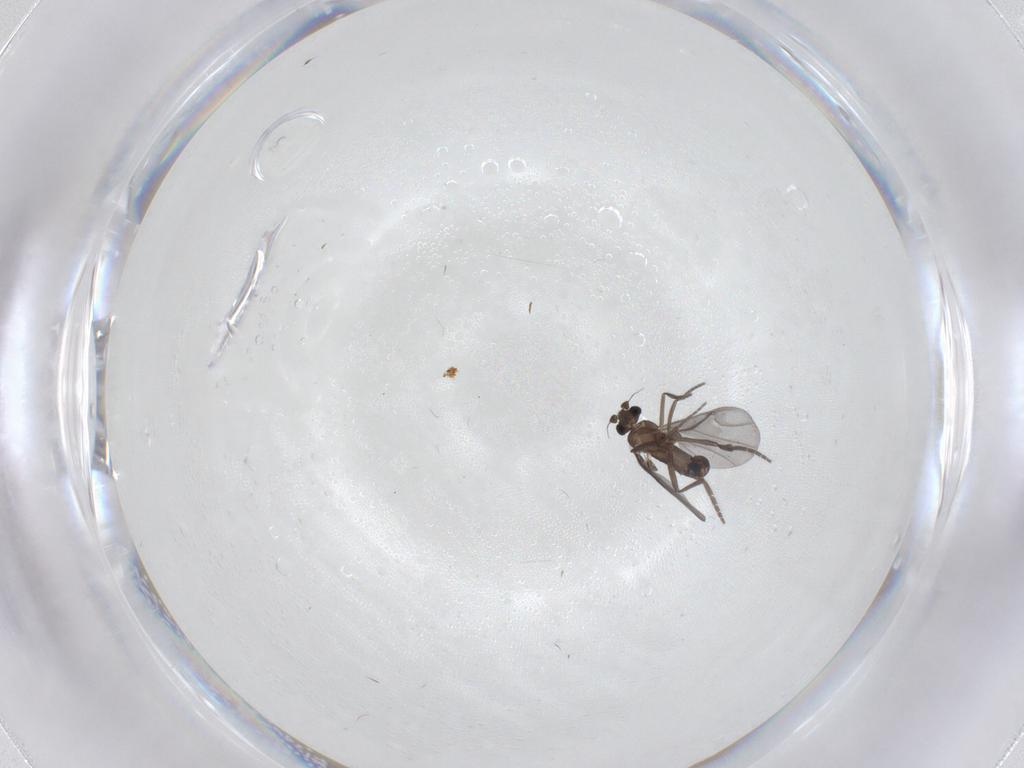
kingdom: Animalia
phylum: Arthropoda
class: Insecta
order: Diptera
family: Phoridae
